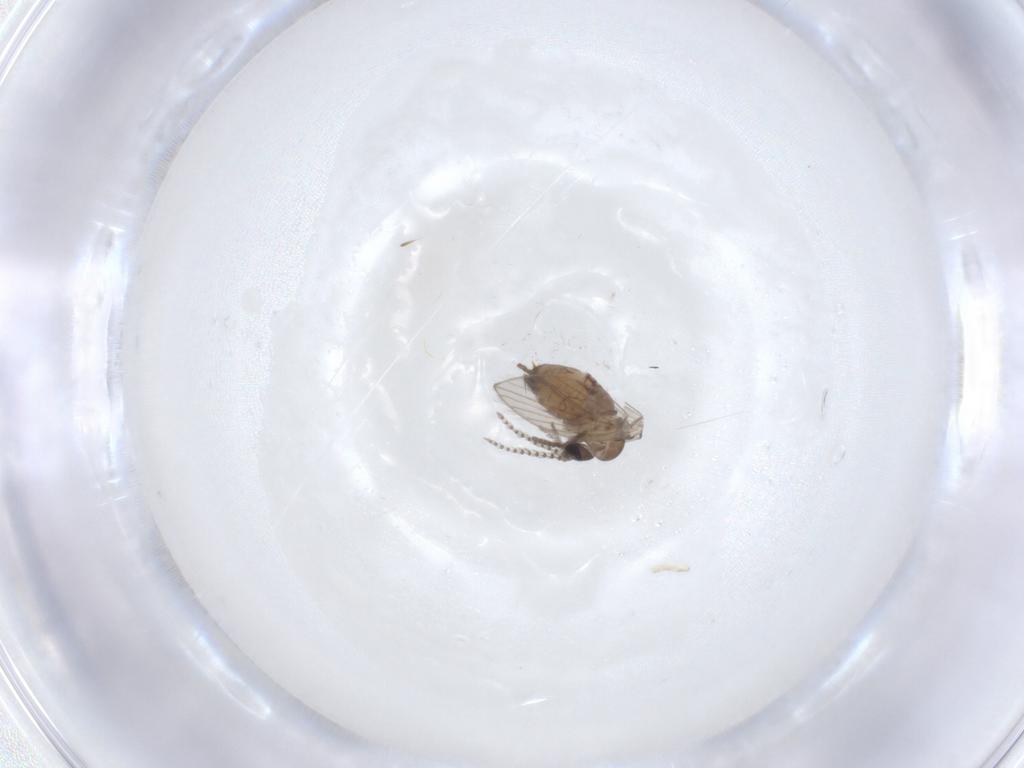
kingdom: Animalia
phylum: Arthropoda
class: Insecta
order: Diptera
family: Psychodidae
